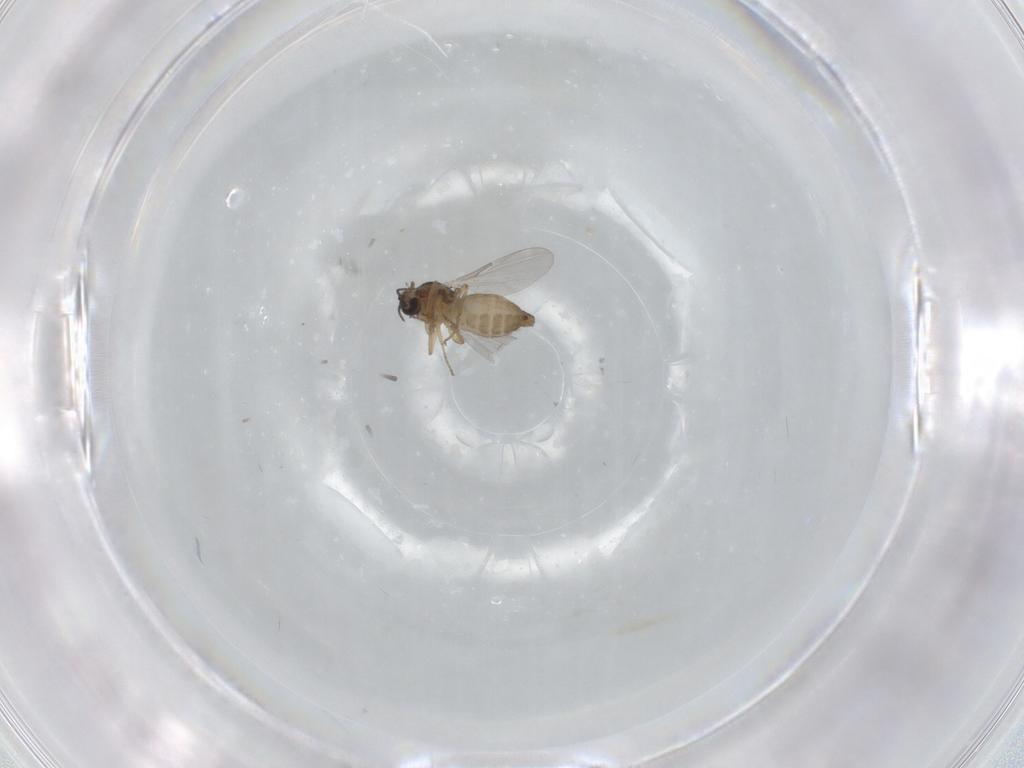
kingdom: Animalia
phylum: Arthropoda
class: Insecta
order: Diptera
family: Ceratopogonidae
